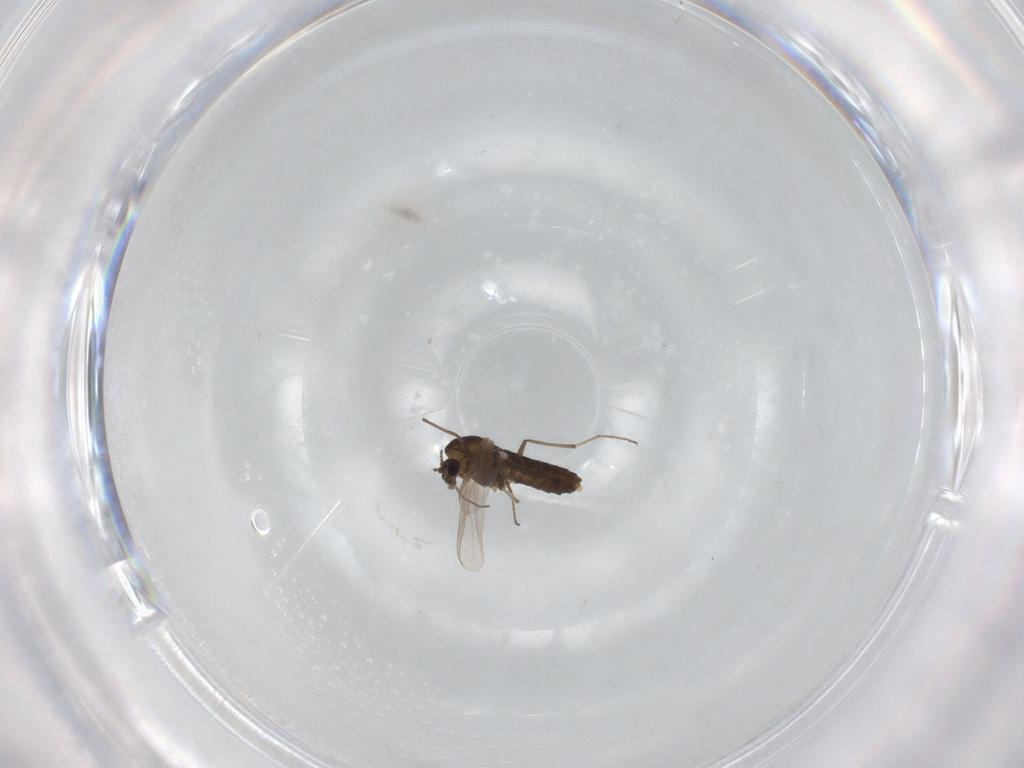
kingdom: Animalia
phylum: Arthropoda
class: Insecta
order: Diptera
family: Chironomidae
